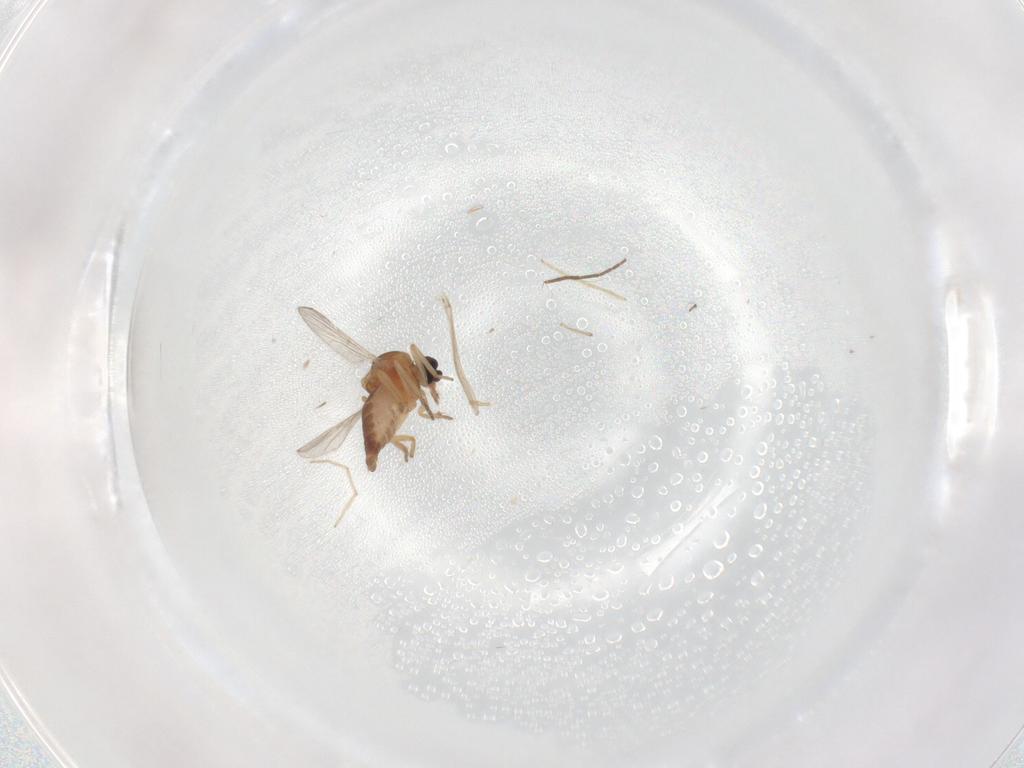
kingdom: Animalia
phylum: Arthropoda
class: Insecta
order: Diptera
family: Ceratopogonidae
